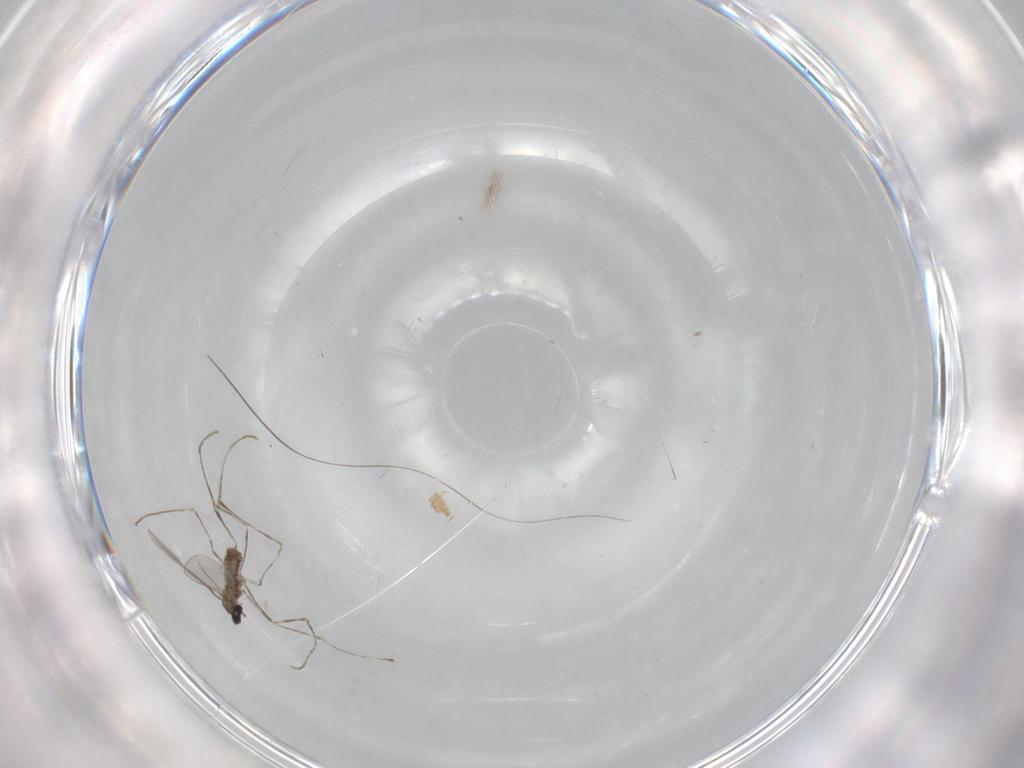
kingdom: Animalia
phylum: Arthropoda
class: Insecta
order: Diptera
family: Cecidomyiidae
